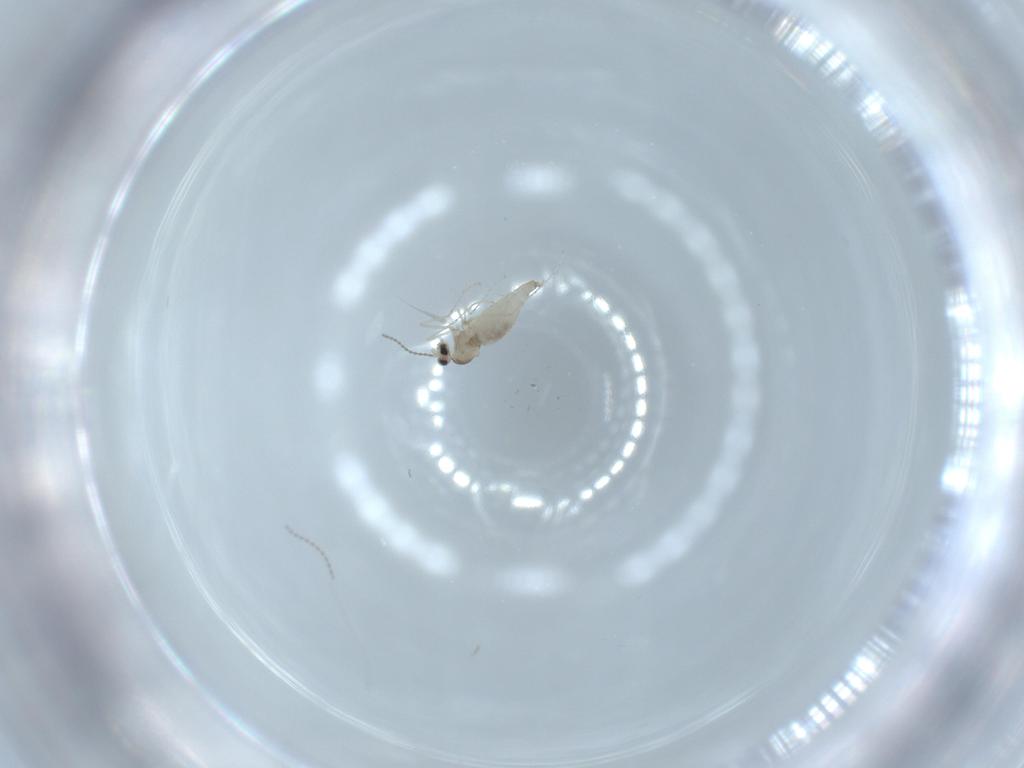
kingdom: Animalia
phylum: Arthropoda
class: Insecta
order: Diptera
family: Cecidomyiidae
